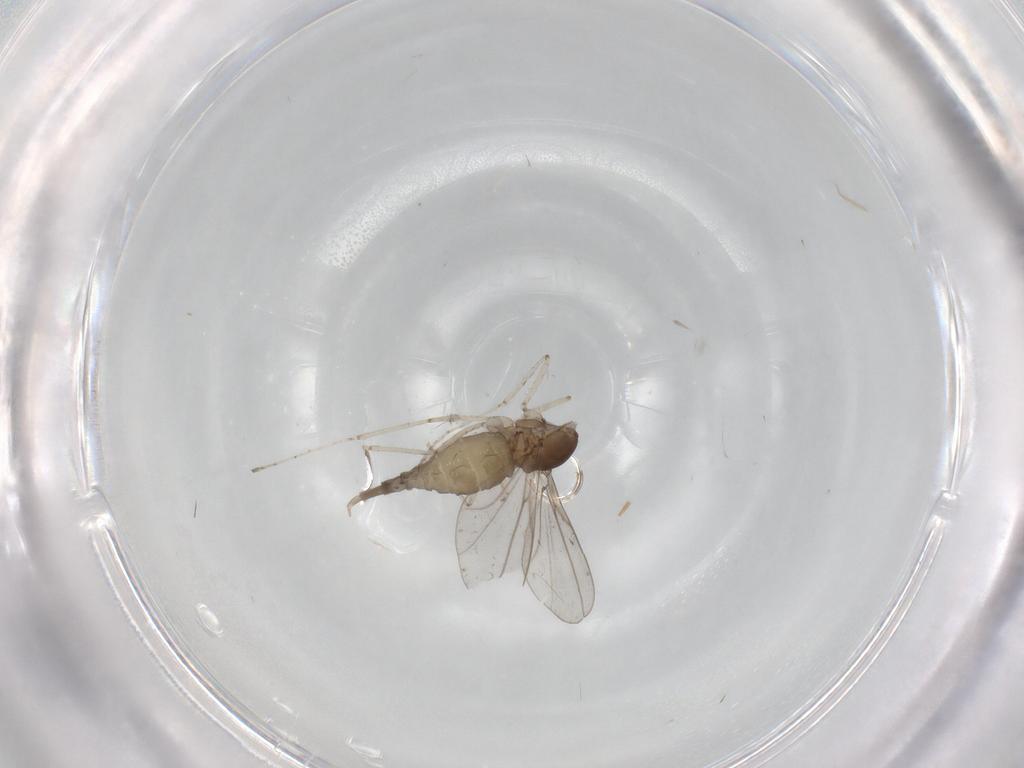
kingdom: Animalia
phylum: Arthropoda
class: Insecta
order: Diptera
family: Cecidomyiidae
